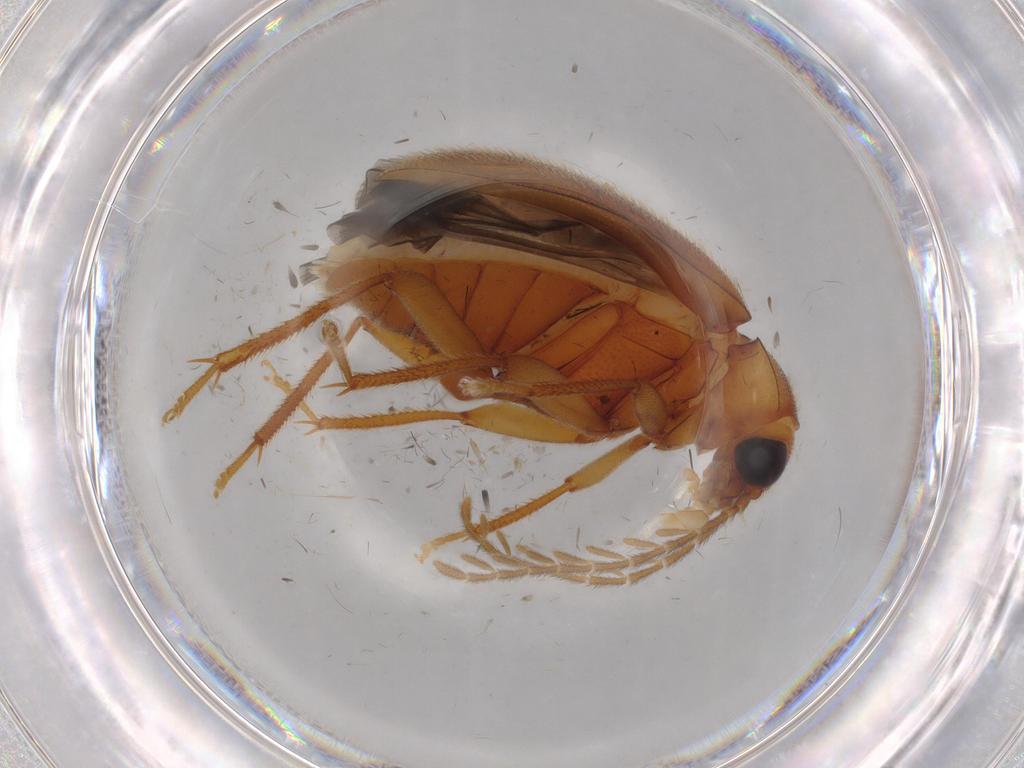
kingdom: Animalia
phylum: Arthropoda
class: Insecta
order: Coleoptera
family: Ptilodactylidae
